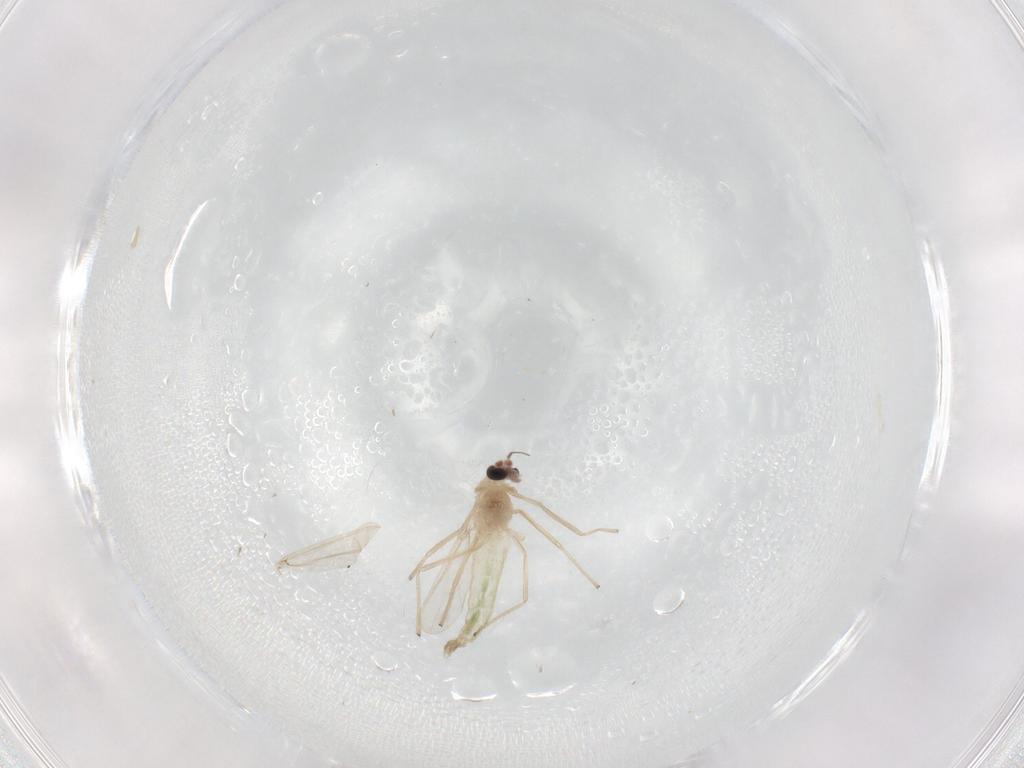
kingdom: Animalia
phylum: Arthropoda
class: Insecta
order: Diptera
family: Chironomidae
